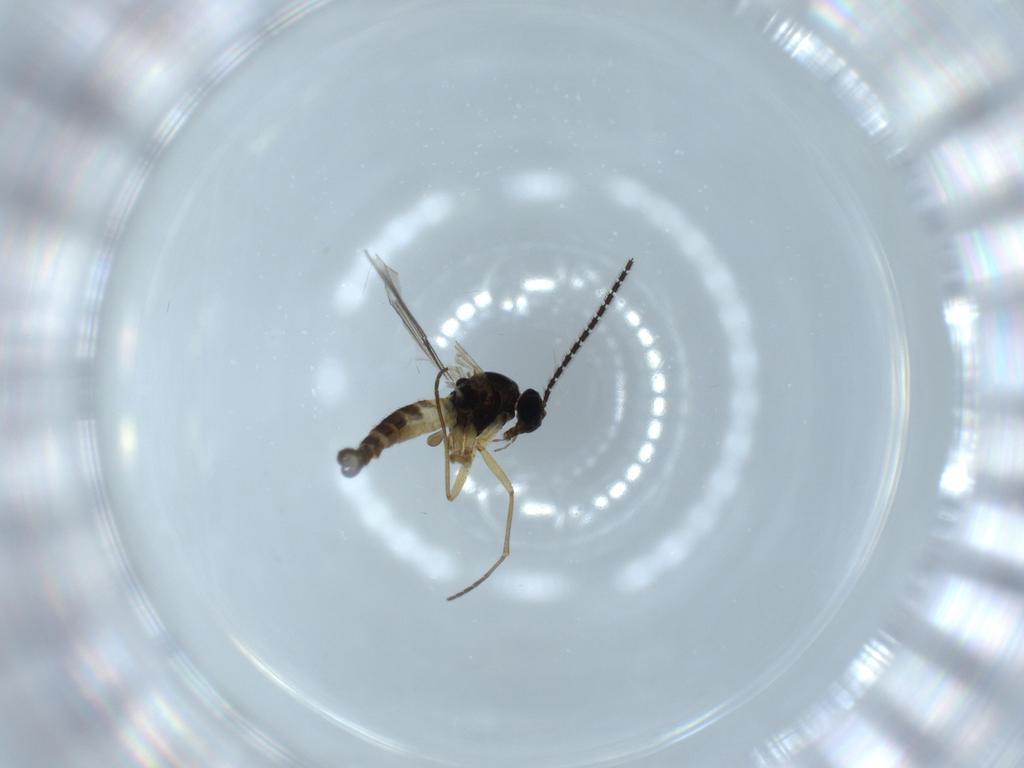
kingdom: Animalia
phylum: Arthropoda
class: Insecta
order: Diptera
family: Sciaridae
